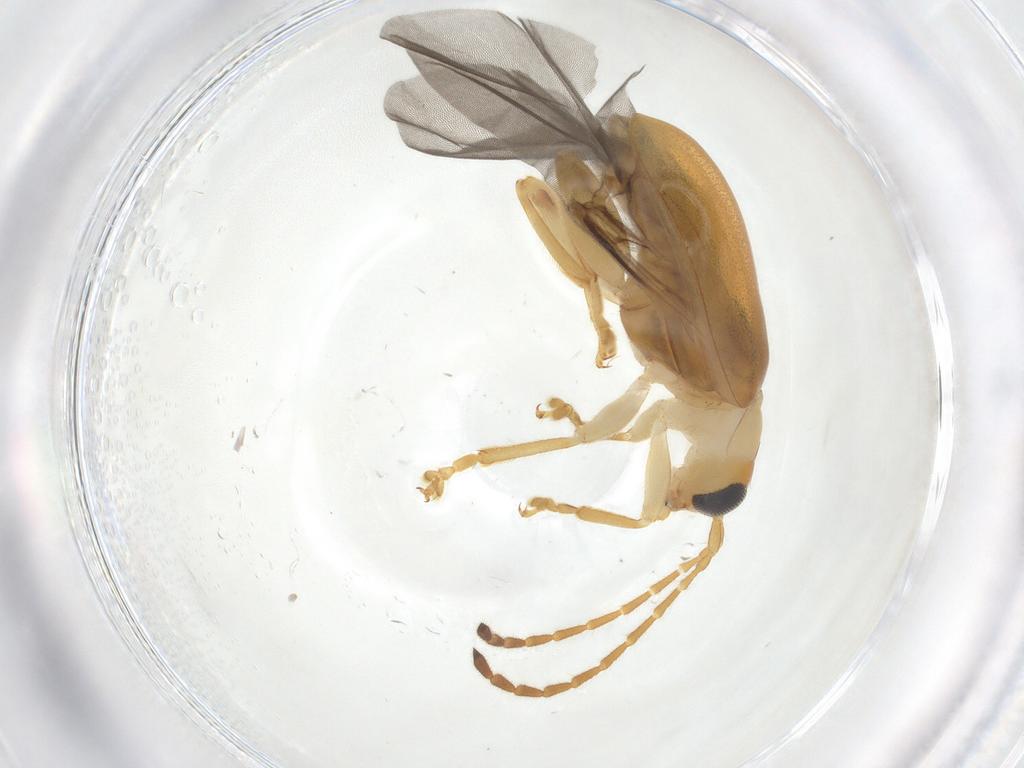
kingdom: Animalia
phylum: Arthropoda
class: Insecta
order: Coleoptera
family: Chrysomelidae
